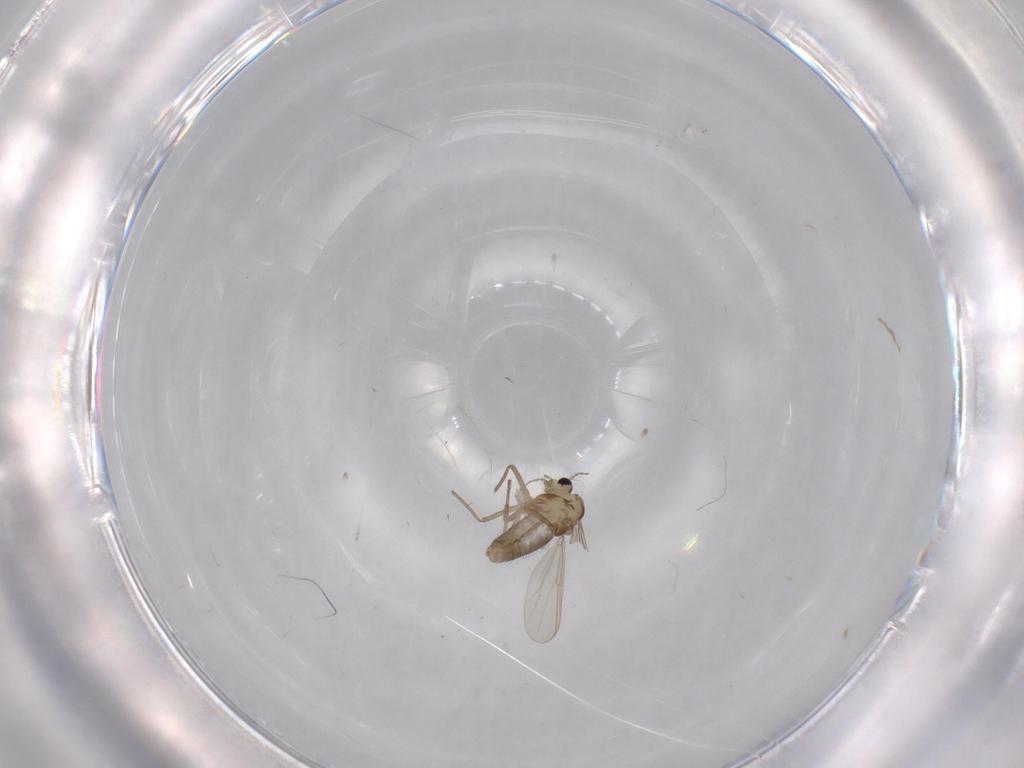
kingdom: Animalia
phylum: Arthropoda
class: Insecta
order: Diptera
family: Chironomidae
